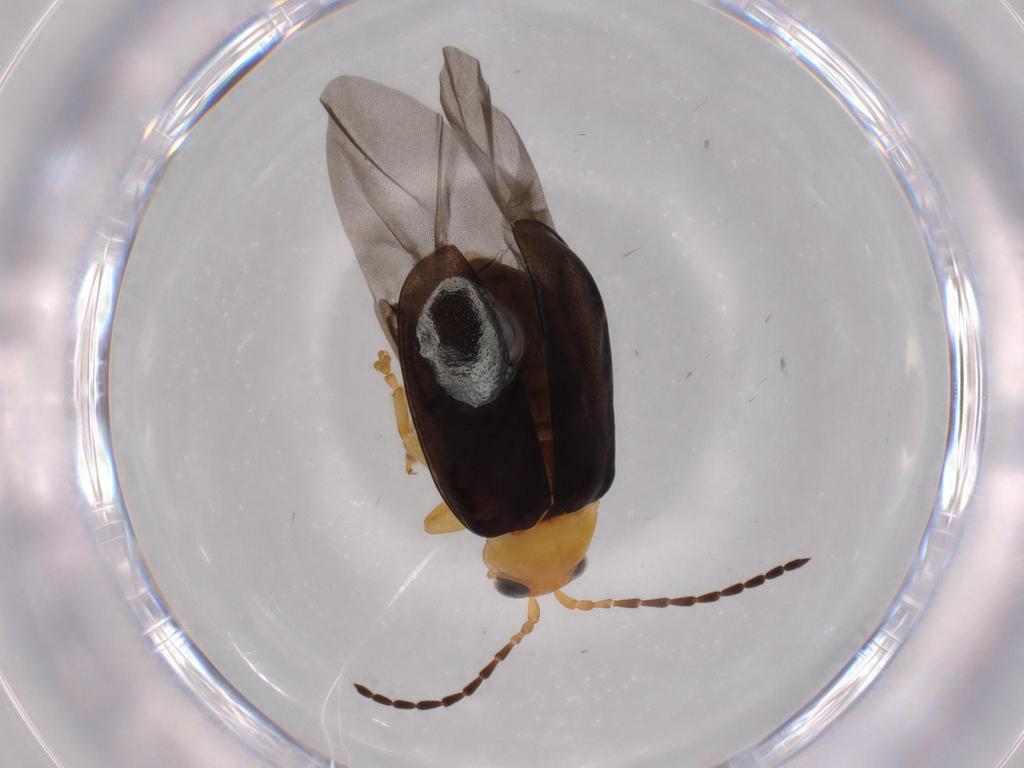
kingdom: Animalia
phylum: Arthropoda
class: Insecta
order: Coleoptera
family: Chrysomelidae
